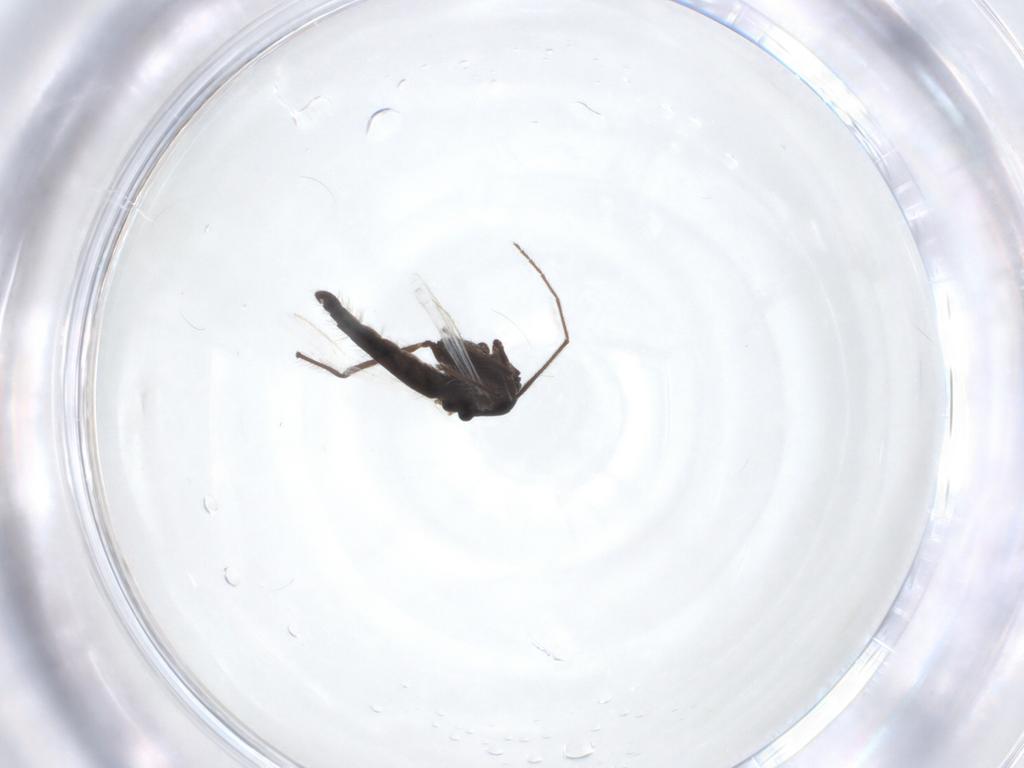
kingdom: Animalia
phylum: Arthropoda
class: Insecta
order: Diptera
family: Chironomidae
